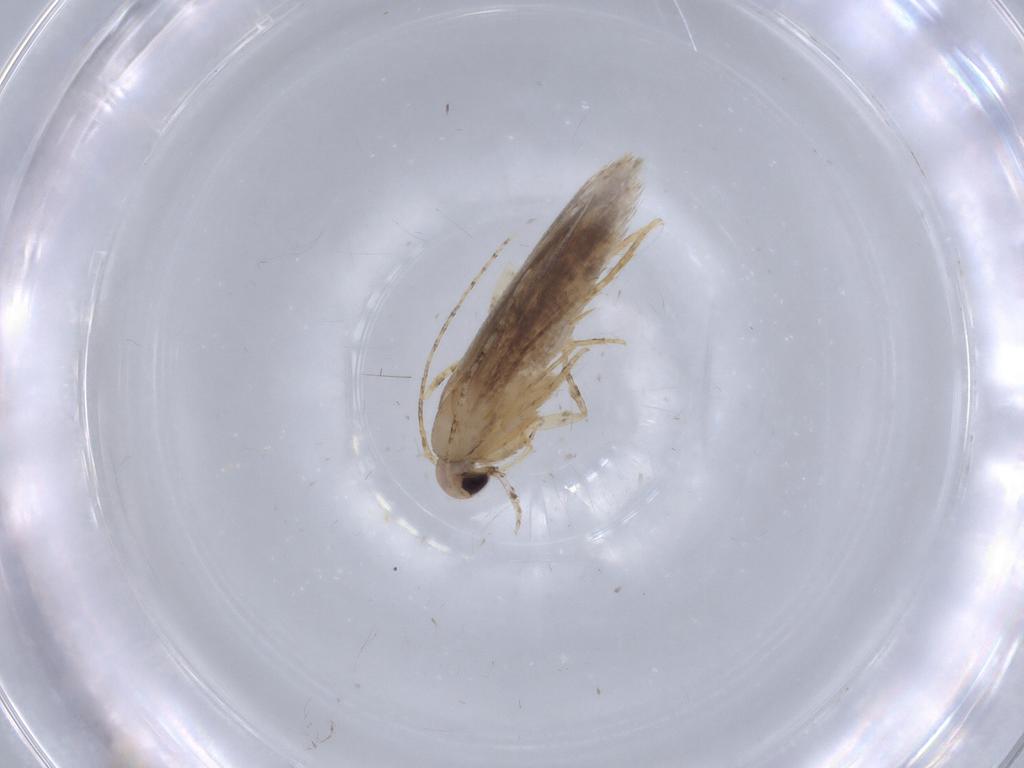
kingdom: Animalia
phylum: Arthropoda
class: Insecta
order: Lepidoptera
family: Gelechiidae
